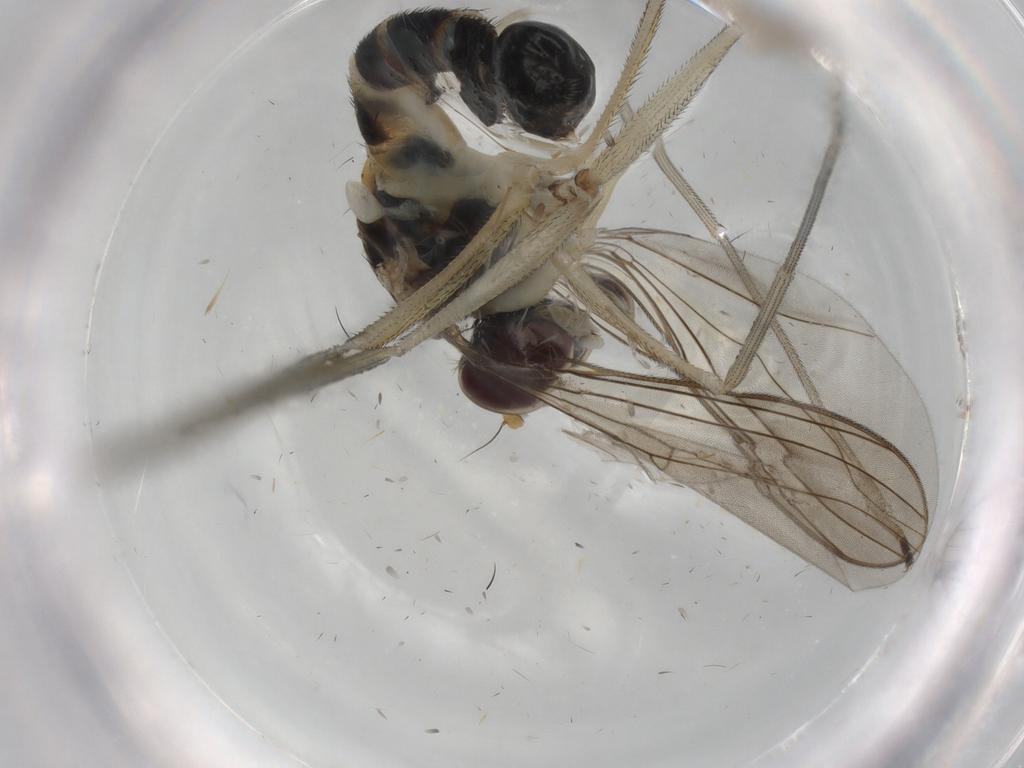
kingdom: Animalia
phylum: Arthropoda
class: Insecta
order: Diptera
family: Dolichopodidae
